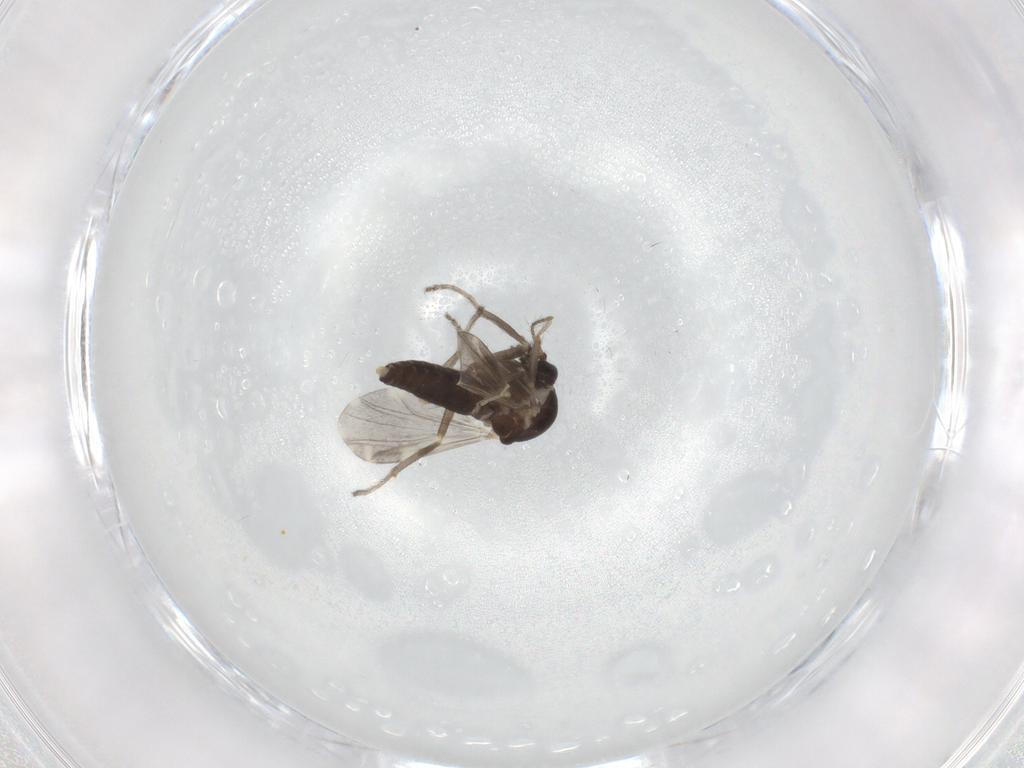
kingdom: Animalia
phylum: Arthropoda
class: Insecta
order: Diptera
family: Ceratopogonidae
